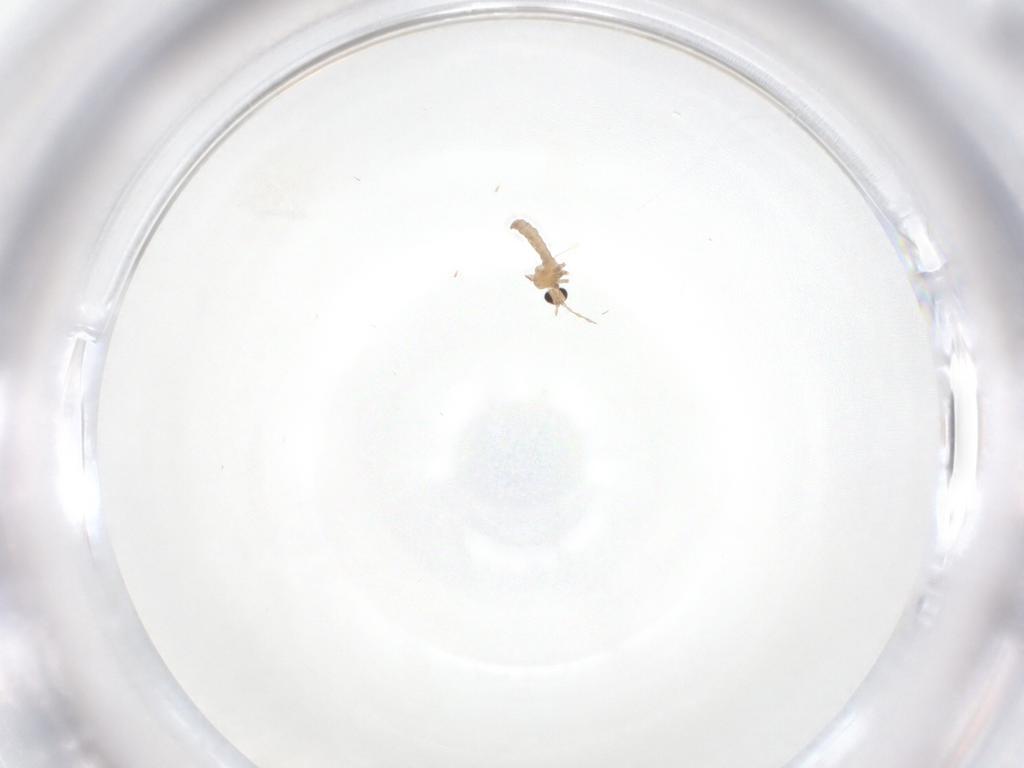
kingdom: Animalia
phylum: Arthropoda
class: Insecta
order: Diptera
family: Cecidomyiidae
